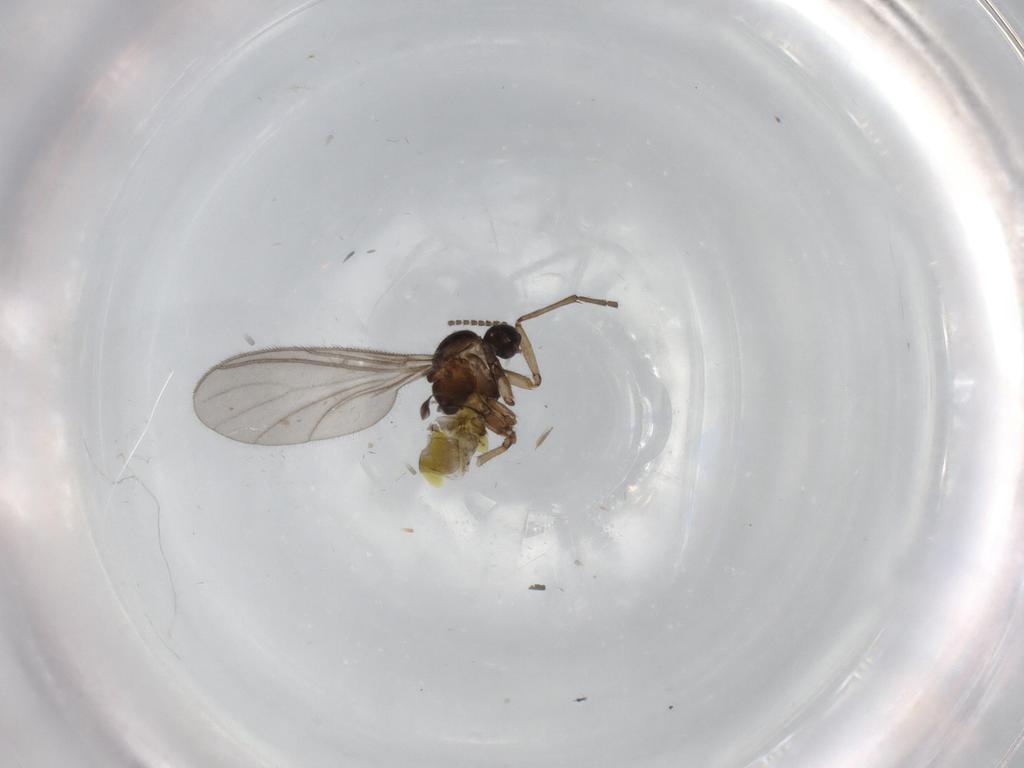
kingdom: Animalia
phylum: Arthropoda
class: Insecta
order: Diptera
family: Sciaridae
